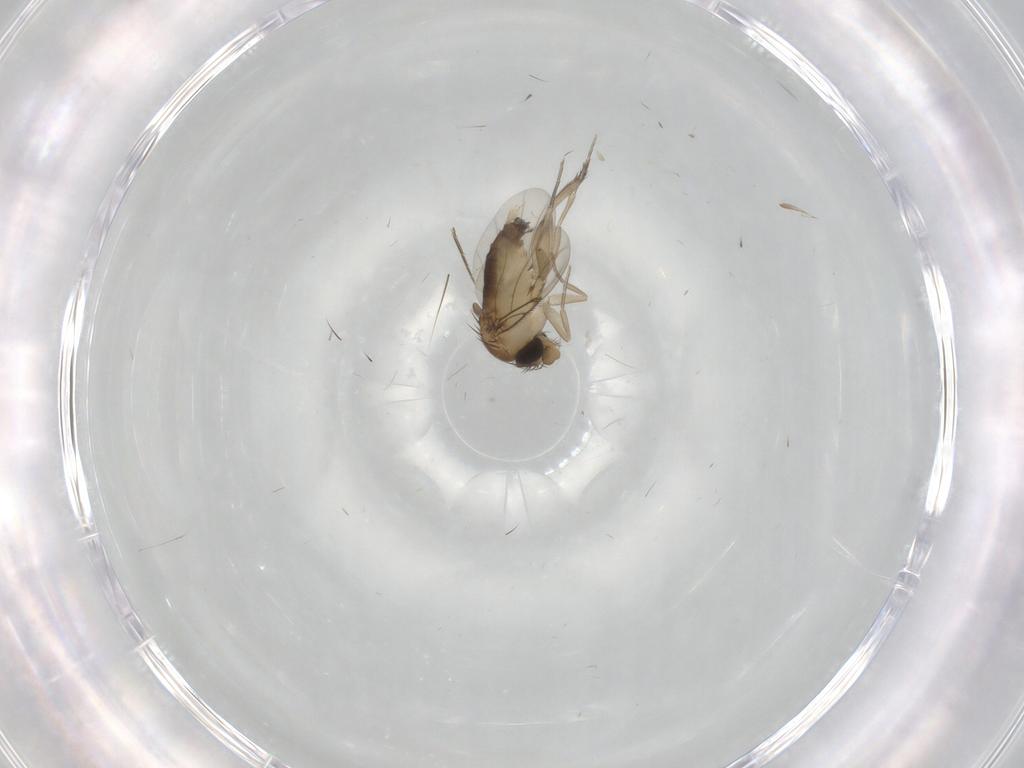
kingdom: Animalia
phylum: Arthropoda
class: Insecta
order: Diptera
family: Phoridae
